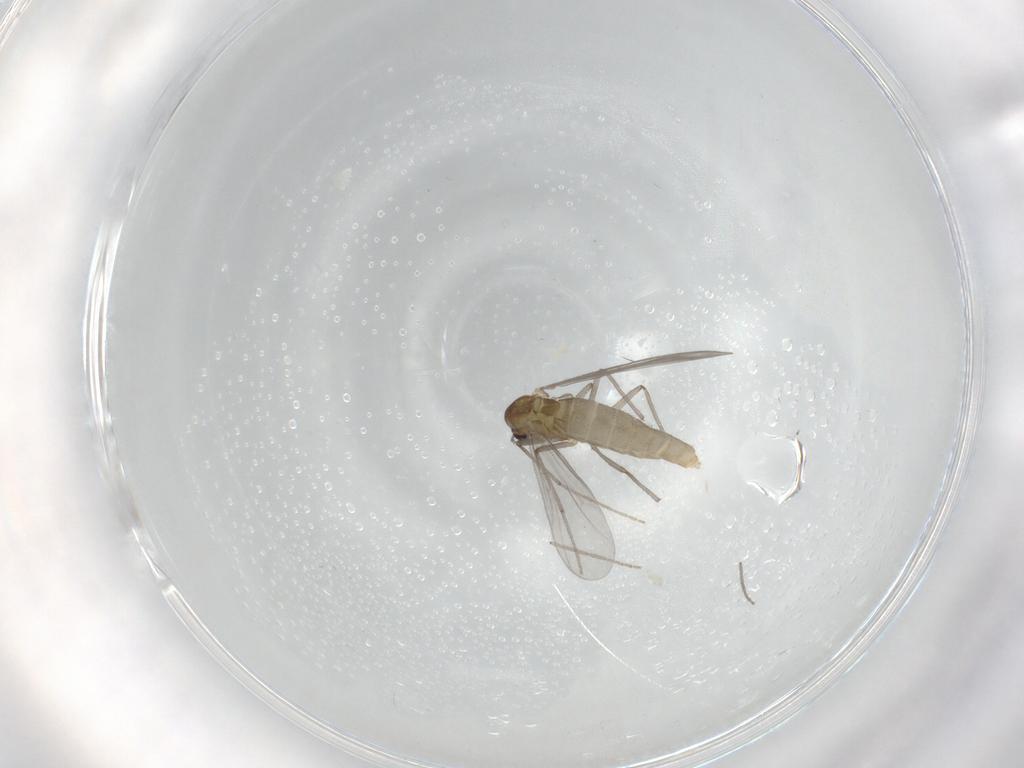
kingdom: Animalia
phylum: Arthropoda
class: Insecta
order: Diptera
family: Chironomidae
